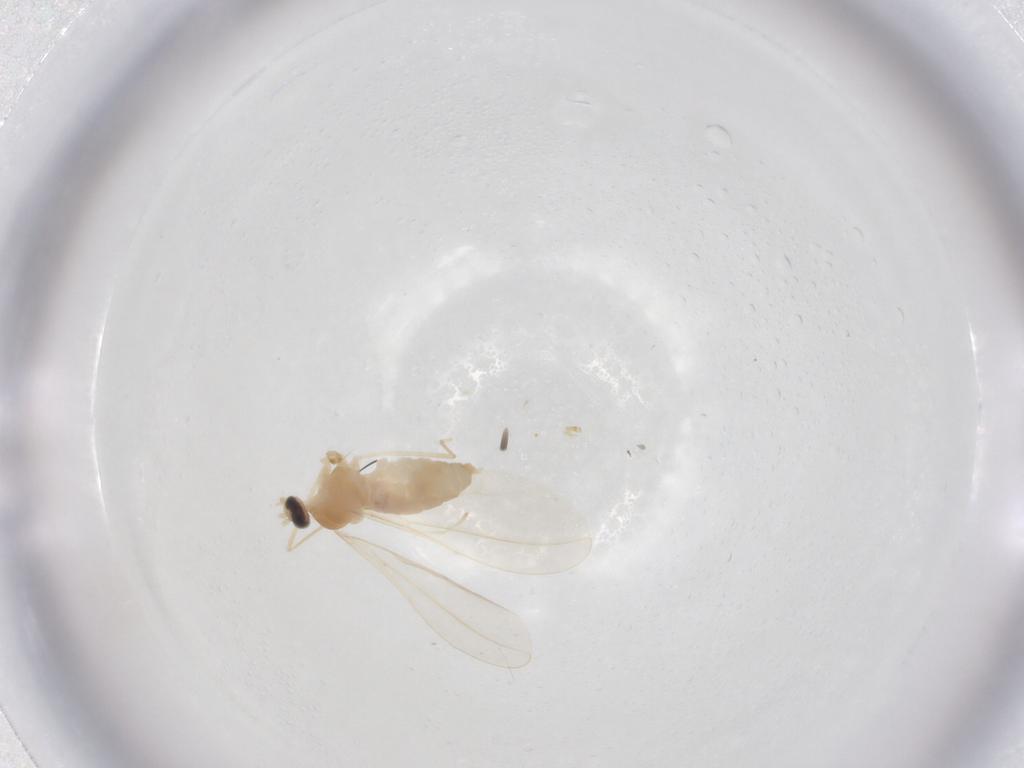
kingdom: Animalia
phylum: Arthropoda
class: Insecta
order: Diptera
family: Cecidomyiidae
